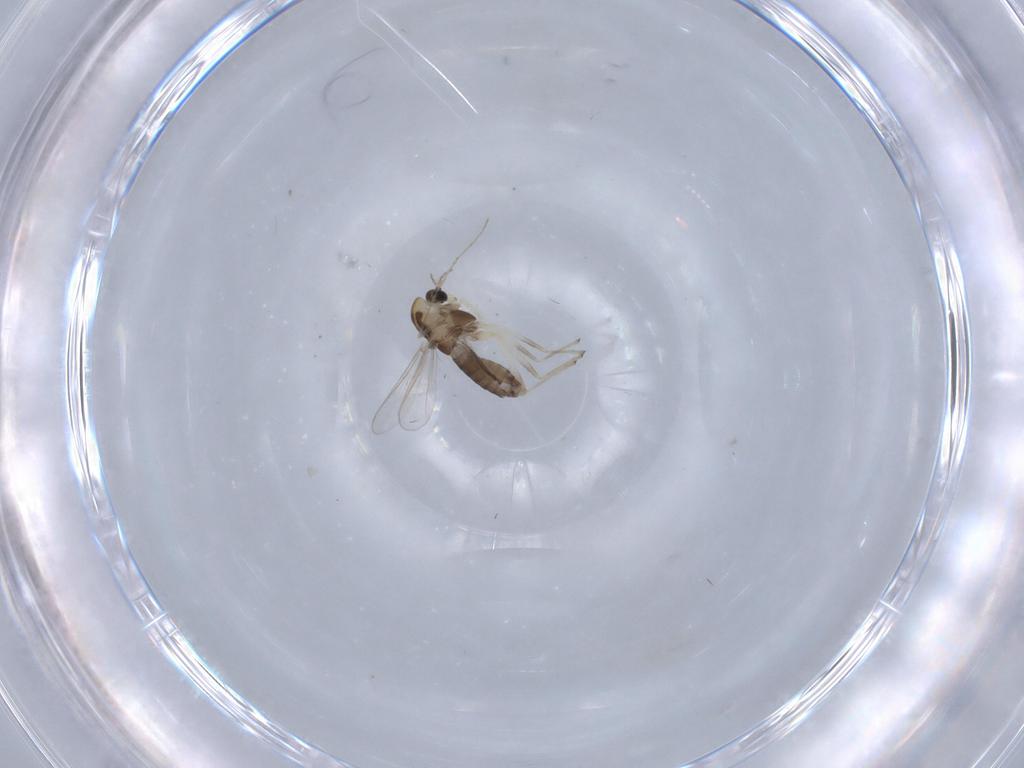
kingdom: Animalia
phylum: Arthropoda
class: Insecta
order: Diptera
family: Chironomidae
